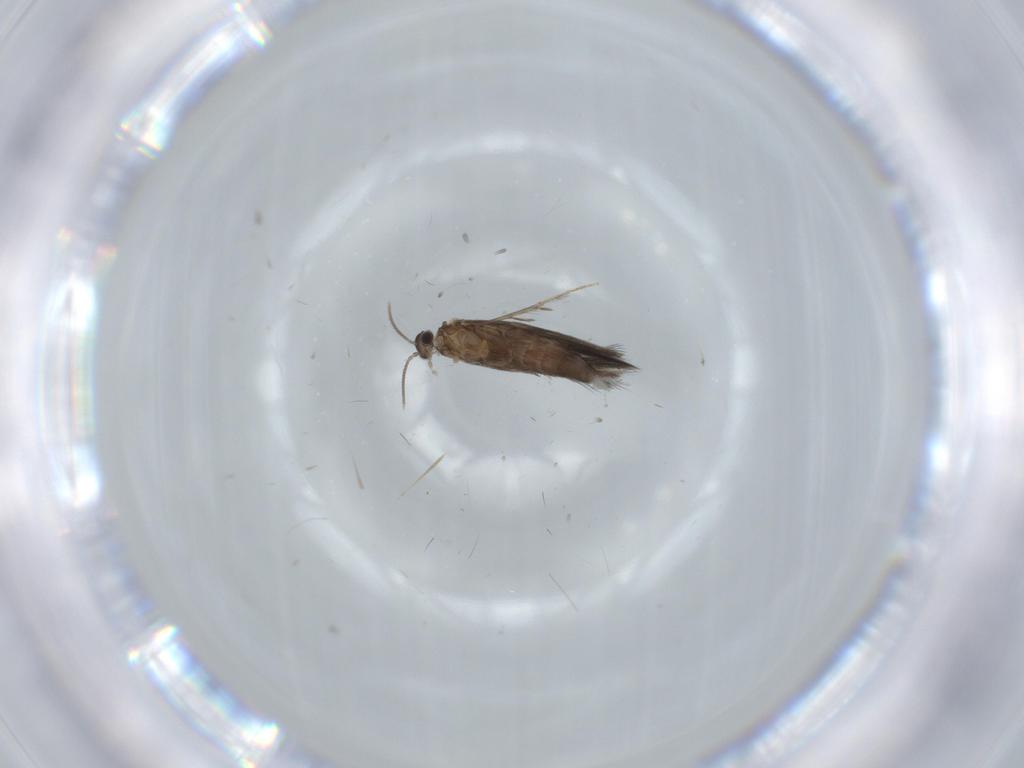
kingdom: Animalia
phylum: Arthropoda
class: Insecta
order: Trichoptera
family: Hydroptilidae
